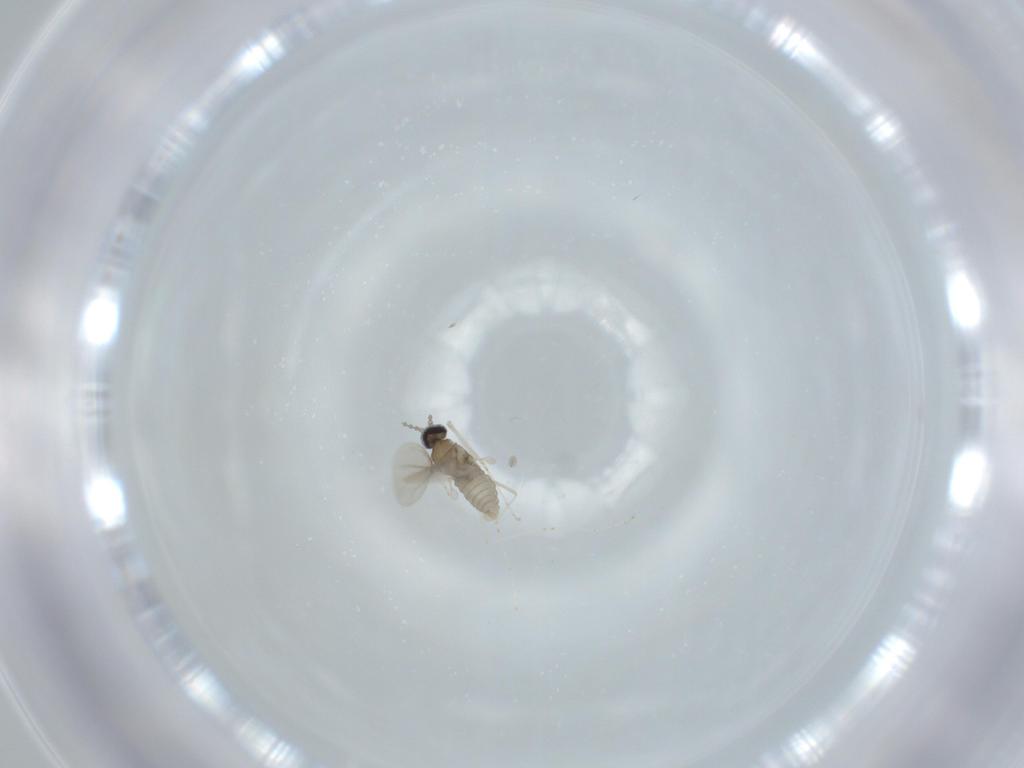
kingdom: Animalia
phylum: Arthropoda
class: Insecta
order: Diptera
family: Cecidomyiidae
